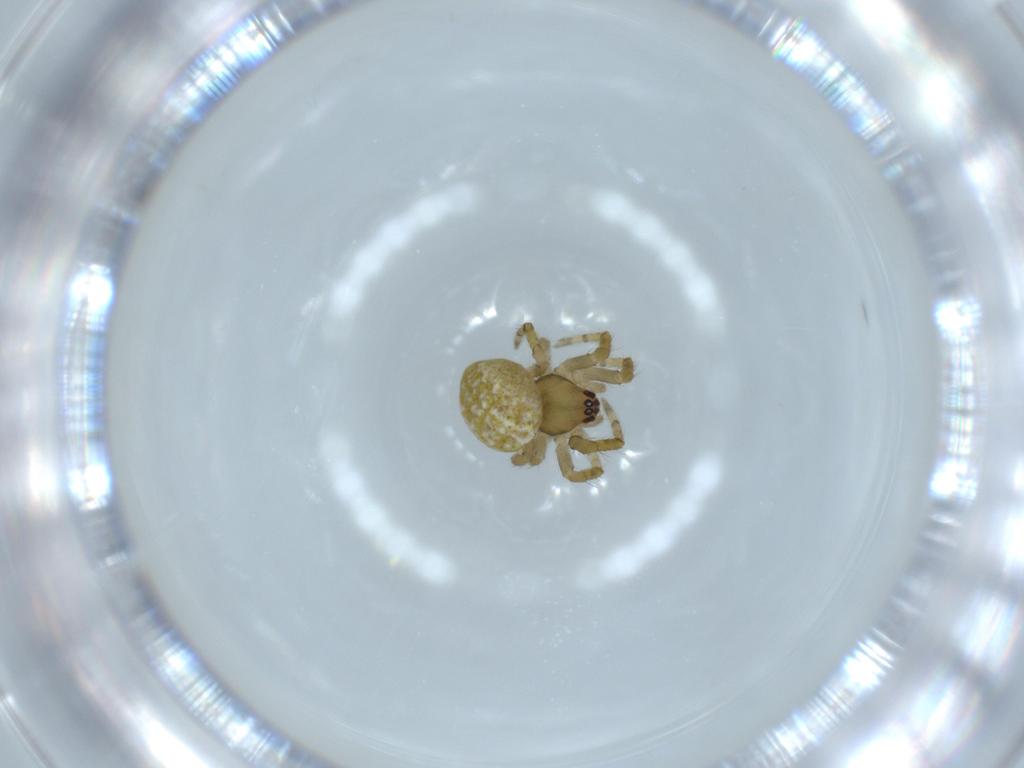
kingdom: Animalia
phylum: Arthropoda
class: Arachnida
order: Araneae
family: Araneidae
